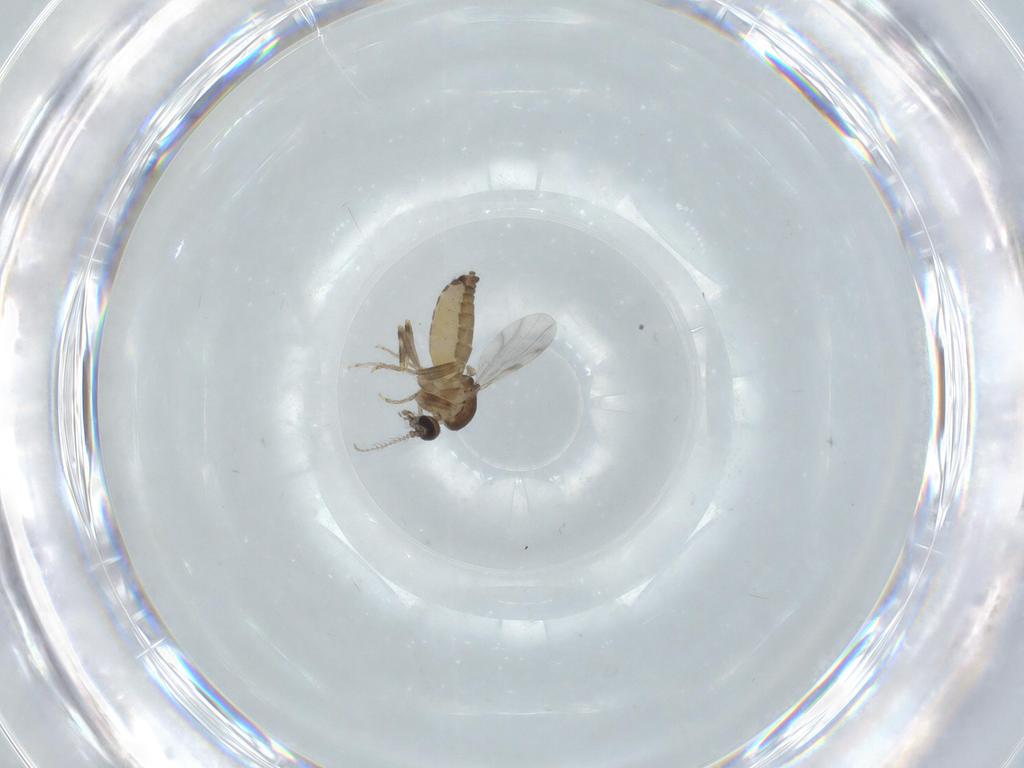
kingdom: Animalia
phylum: Arthropoda
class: Insecta
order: Diptera
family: Ceratopogonidae
